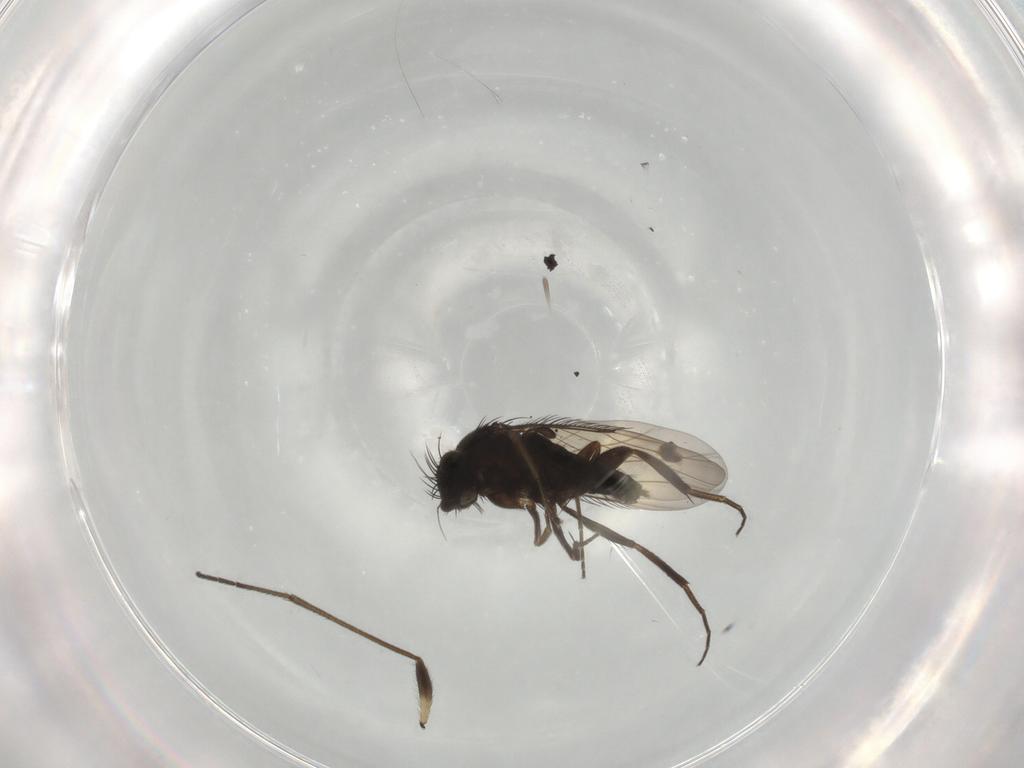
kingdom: Animalia
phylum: Arthropoda
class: Insecta
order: Diptera
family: Phoridae
